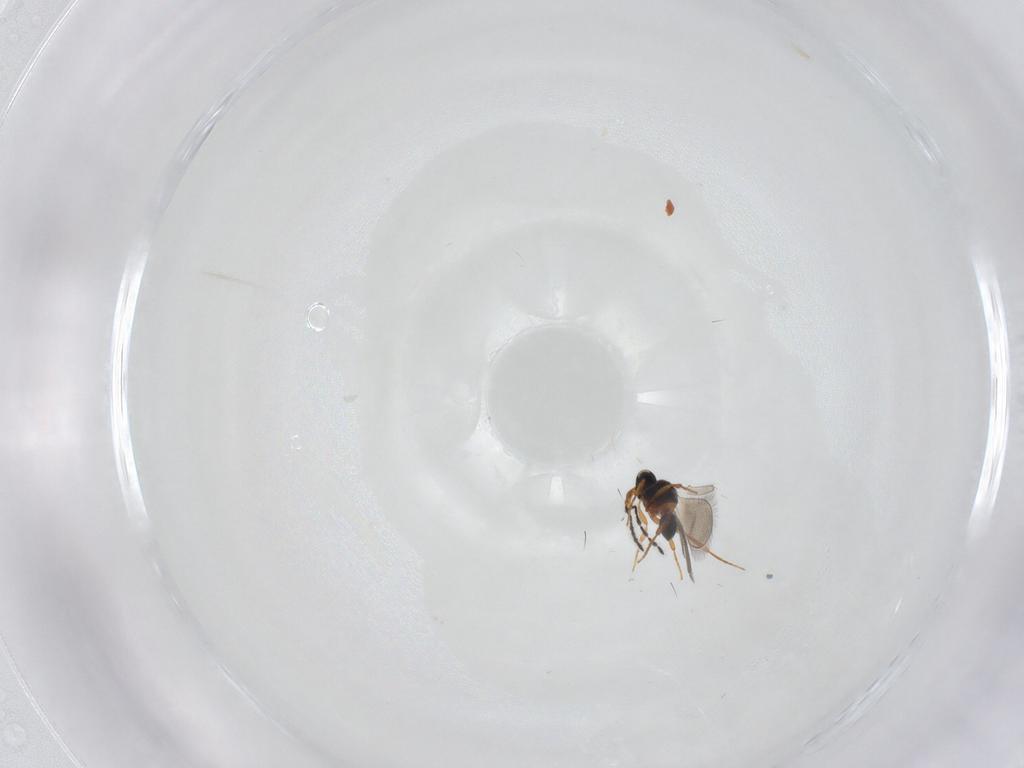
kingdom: Animalia
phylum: Arthropoda
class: Insecta
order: Hymenoptera
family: Platygastridae
